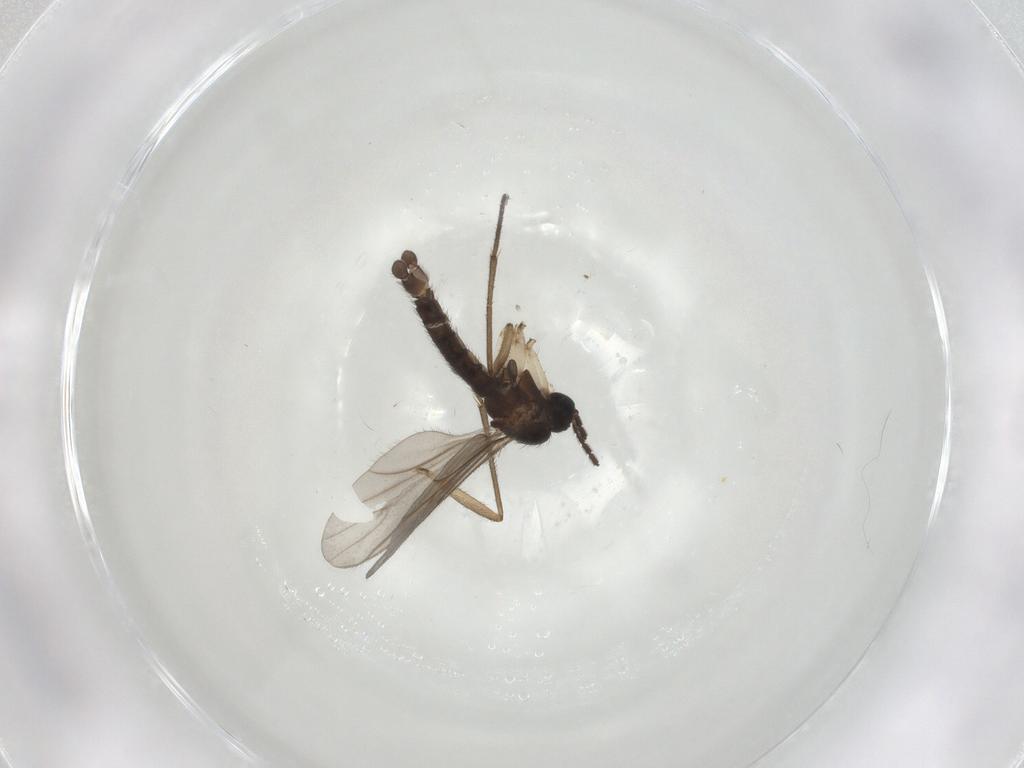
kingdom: Animalia
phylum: Arthropoda
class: Insecta
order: Diptera
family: Sciaridae
